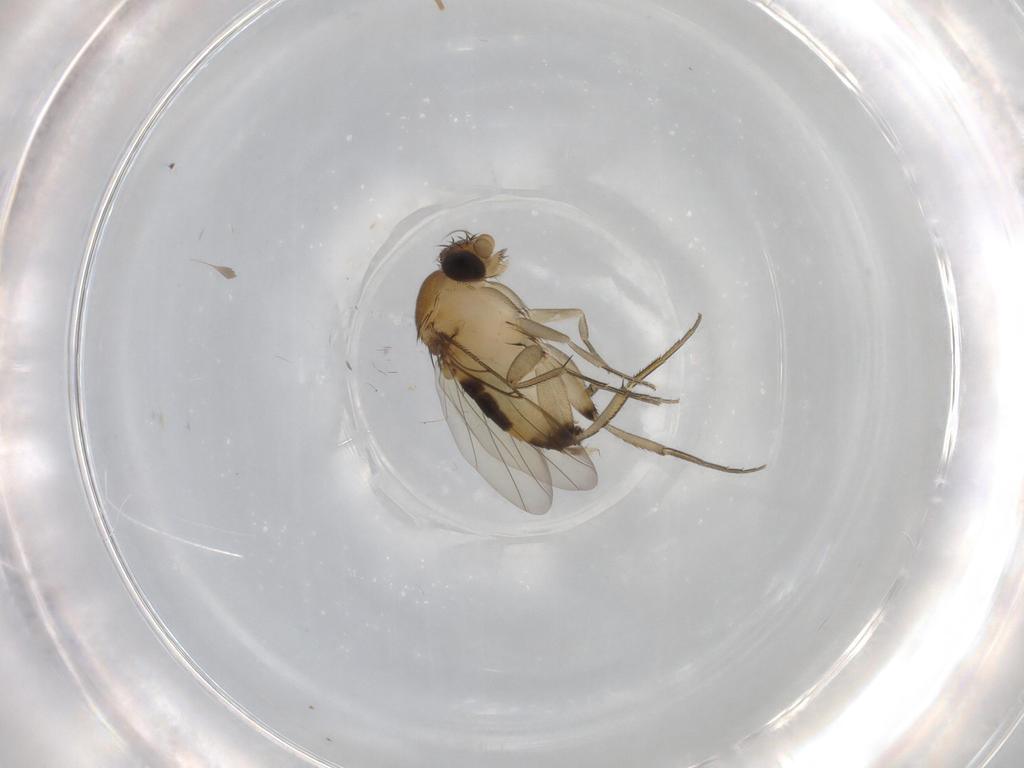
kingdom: Animalia
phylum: Arthropoda
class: Insecta
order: Diptera
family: Phoridae
